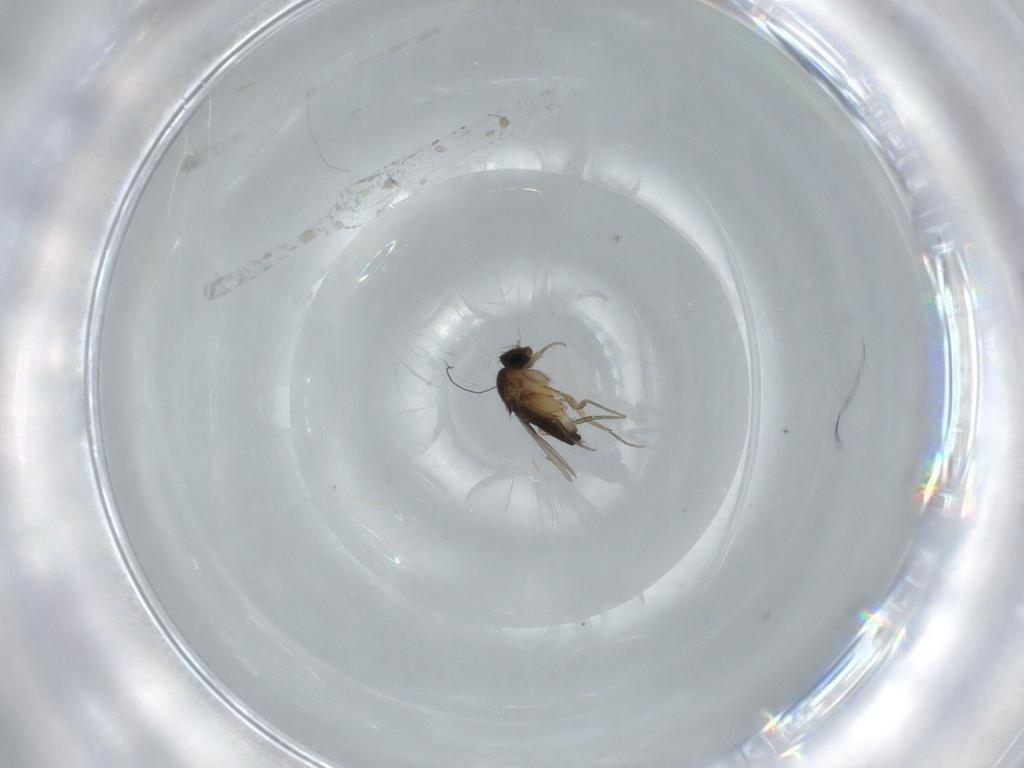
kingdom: Animalia
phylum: Arthropoda
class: Insecta
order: Diptera
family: Phoridae
